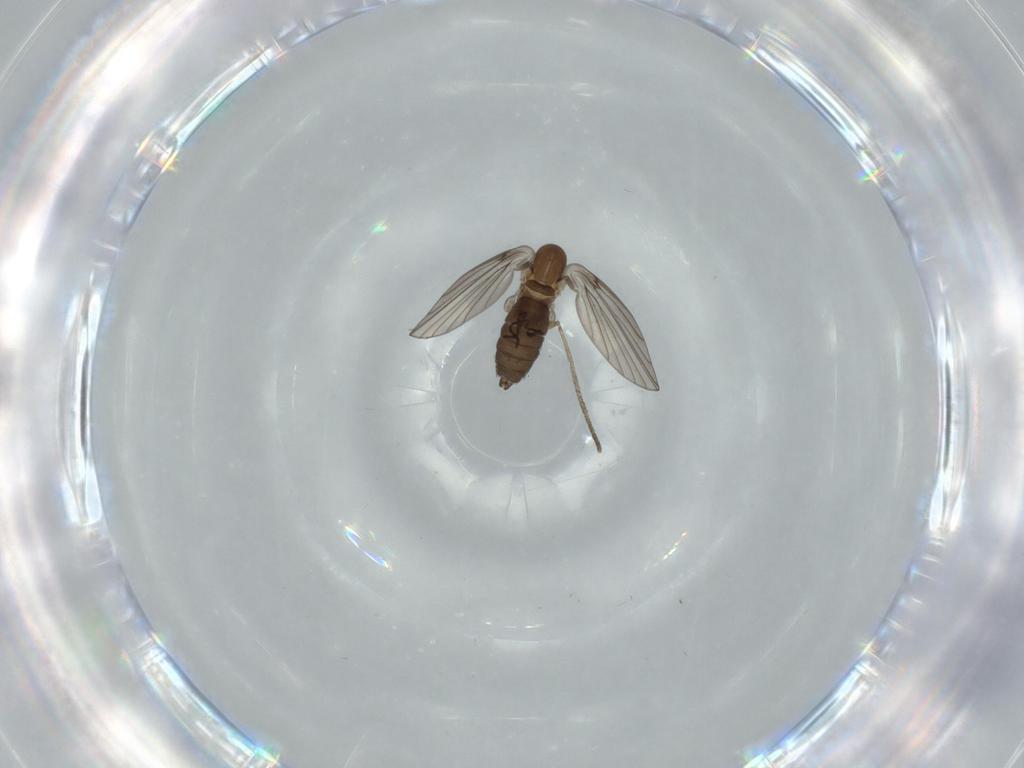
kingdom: Animalia
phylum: Arthropoda
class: Insecta
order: Diptera
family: Psychodidae
